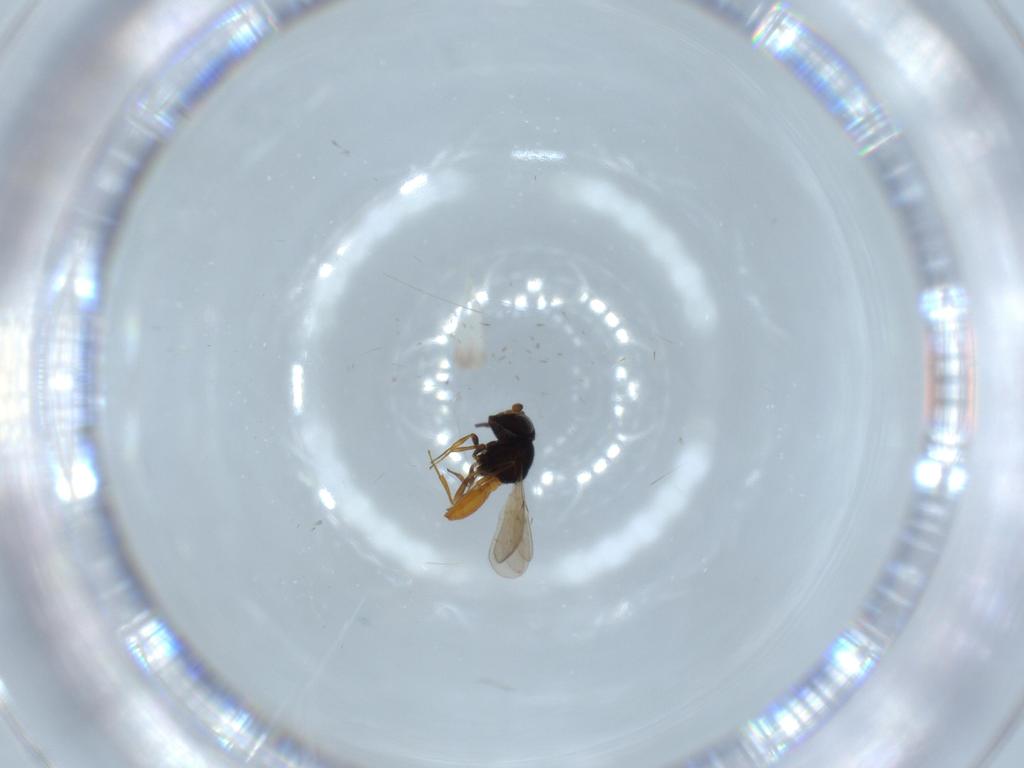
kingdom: Animalia
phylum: Arthropoda
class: Insecta
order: Hymenoptera
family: Scelionidae
